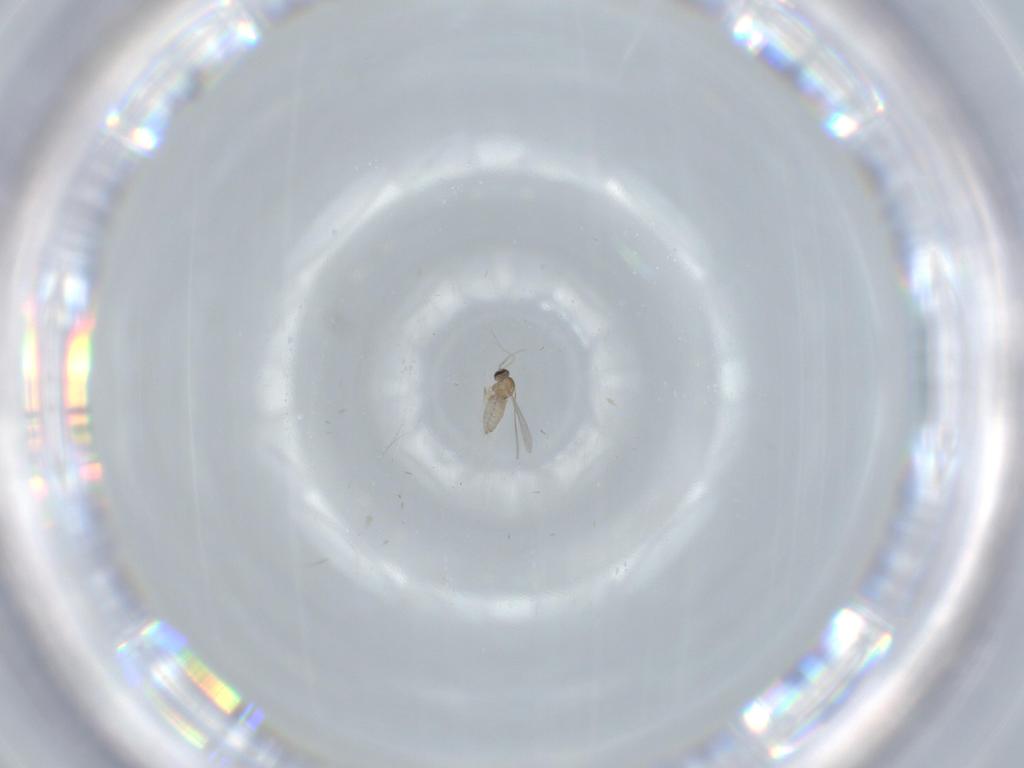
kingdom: Animalia
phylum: Arthropoda
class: Insecta
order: Diptera
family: Cecidomyiidae
